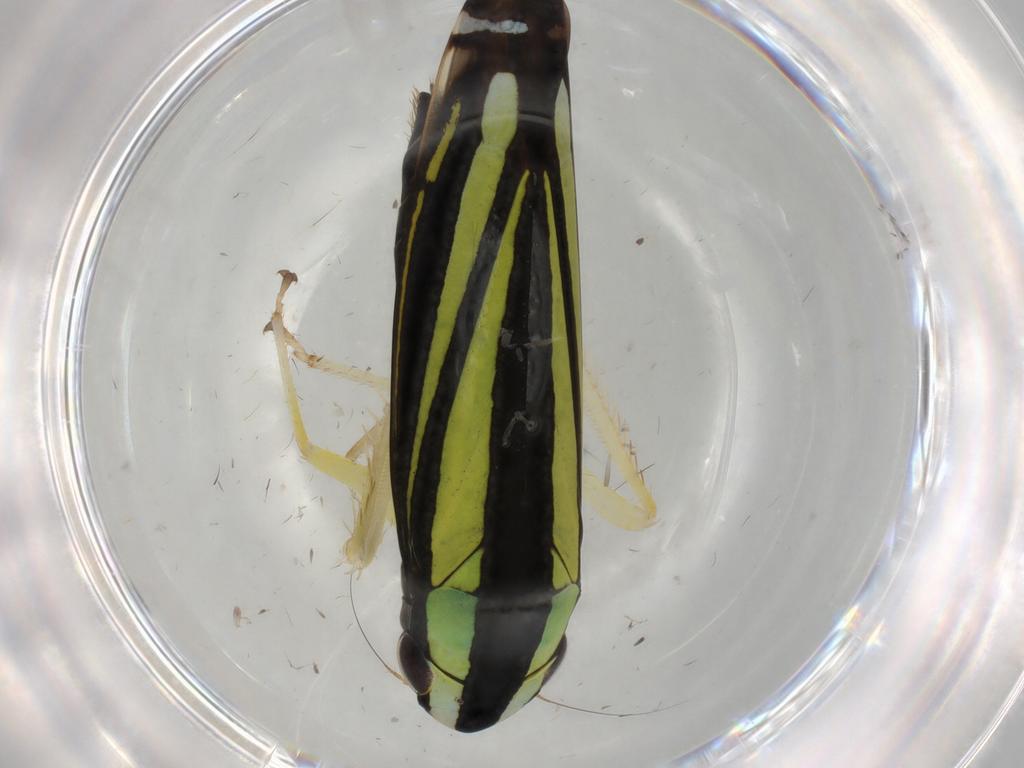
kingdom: Animalia
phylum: Arthropoda
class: Insecta
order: Hemiptera
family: Cicadellidae
